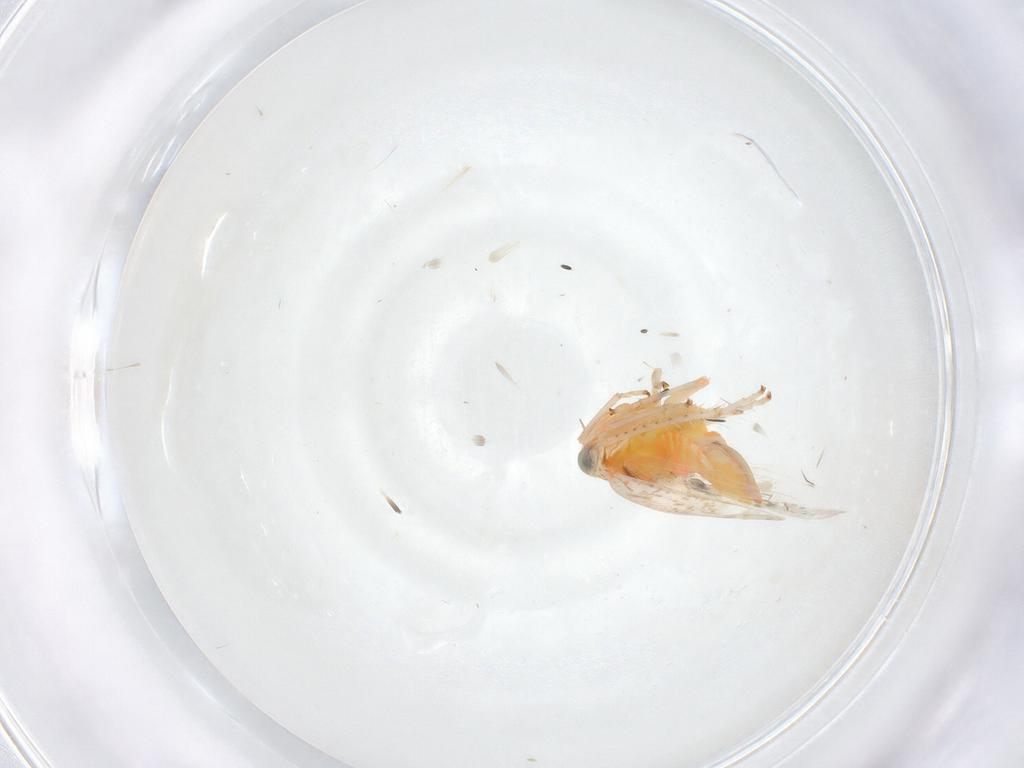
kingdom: Animalia
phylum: Arthropoda
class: Insecta
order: Hemiptera
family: Cicadellidae
